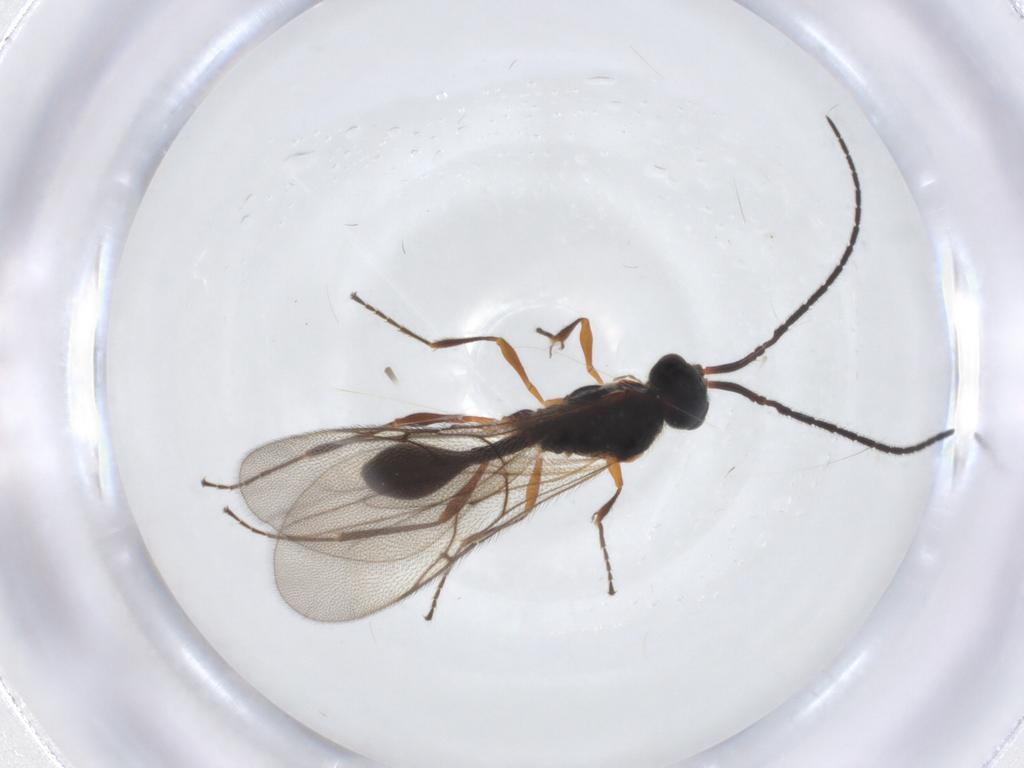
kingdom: Animalia
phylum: Arthropoda
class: Insecta
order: Hymenoptera
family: Diapriidae
